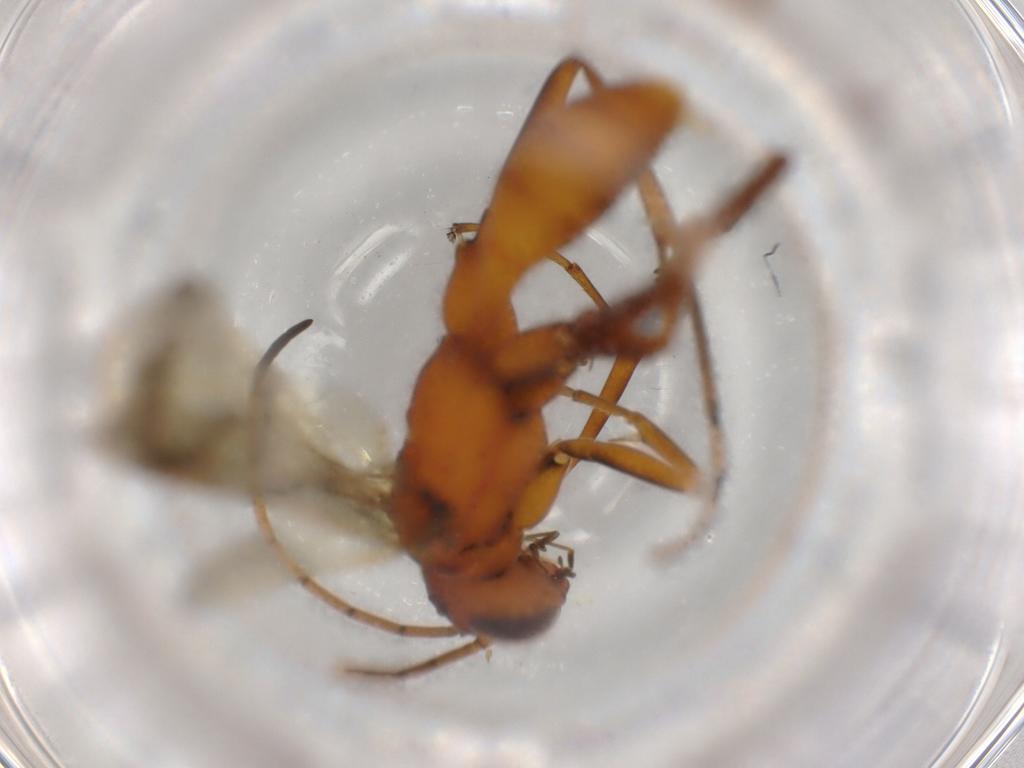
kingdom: Animalia
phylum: Arthropoda
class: Insecta
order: Hymenoptera
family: Pompilidae
